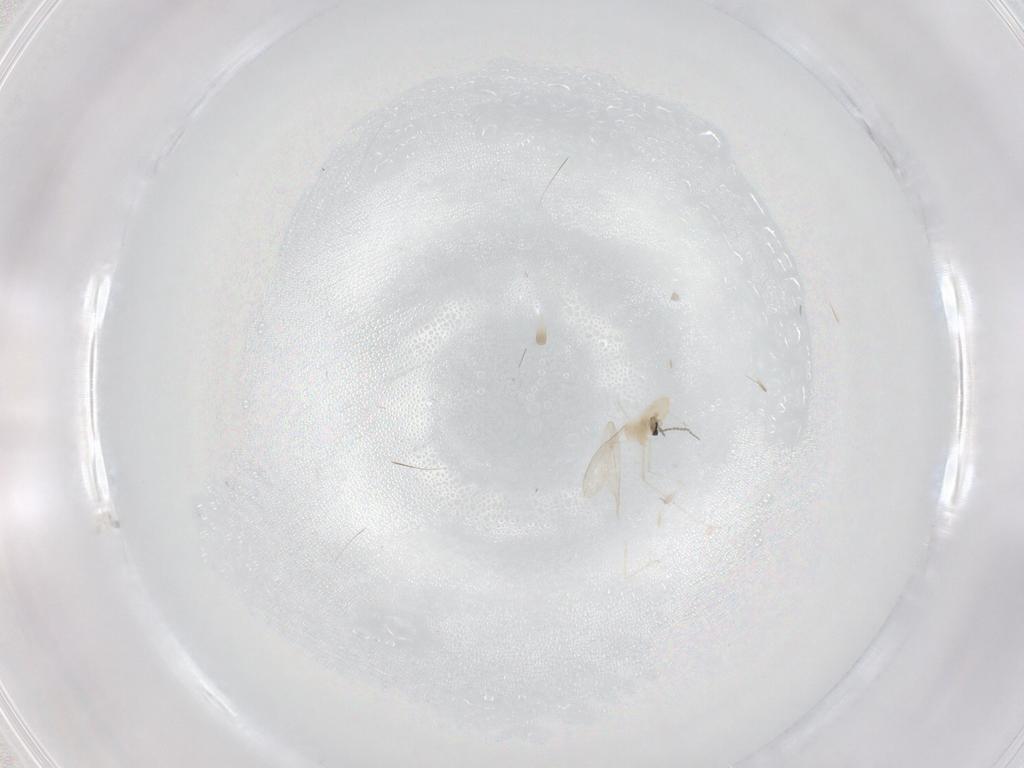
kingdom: Animalia
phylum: Arthropoda
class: Insecta
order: Diptera
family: Cecidomyiidae
